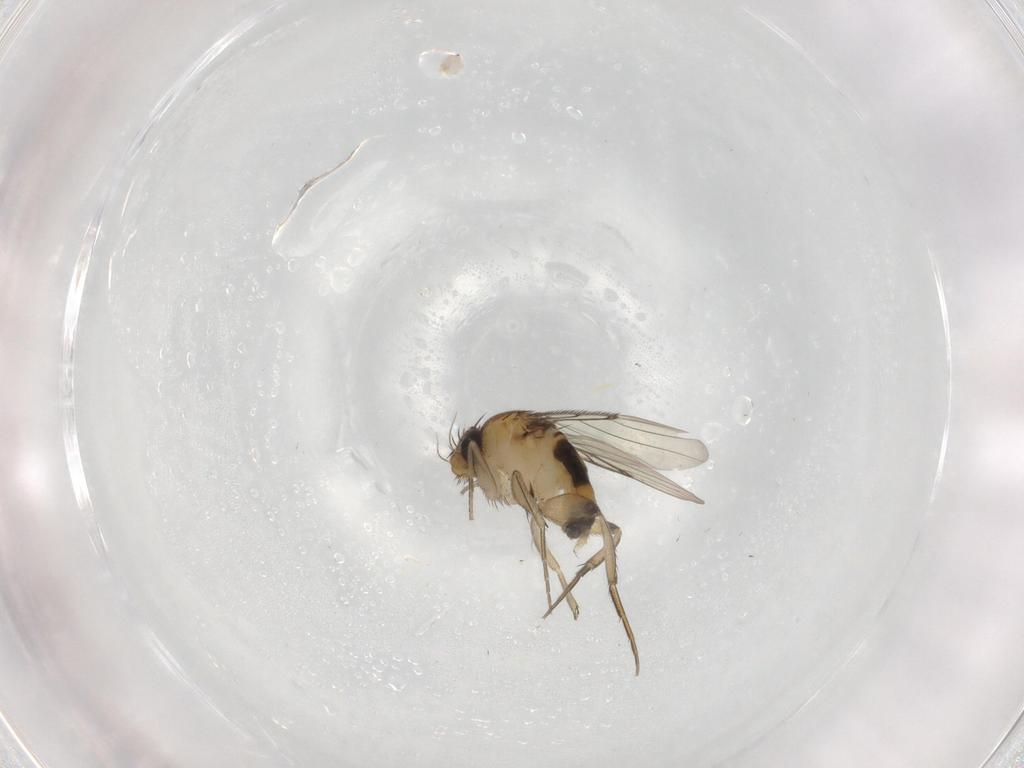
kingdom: Animalia
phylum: Arthropoda
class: Insecta
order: Diptera
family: Phoridae
